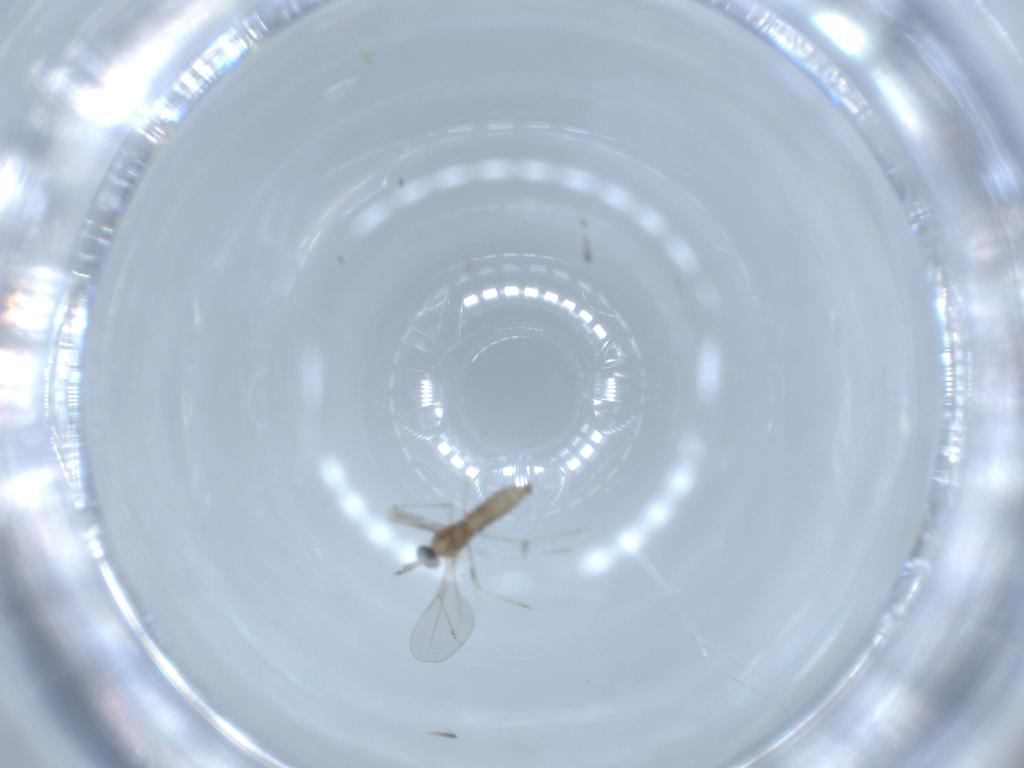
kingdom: Animalia
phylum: Arthropoda
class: Insecta
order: Diptera
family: Cecidomyiidae
